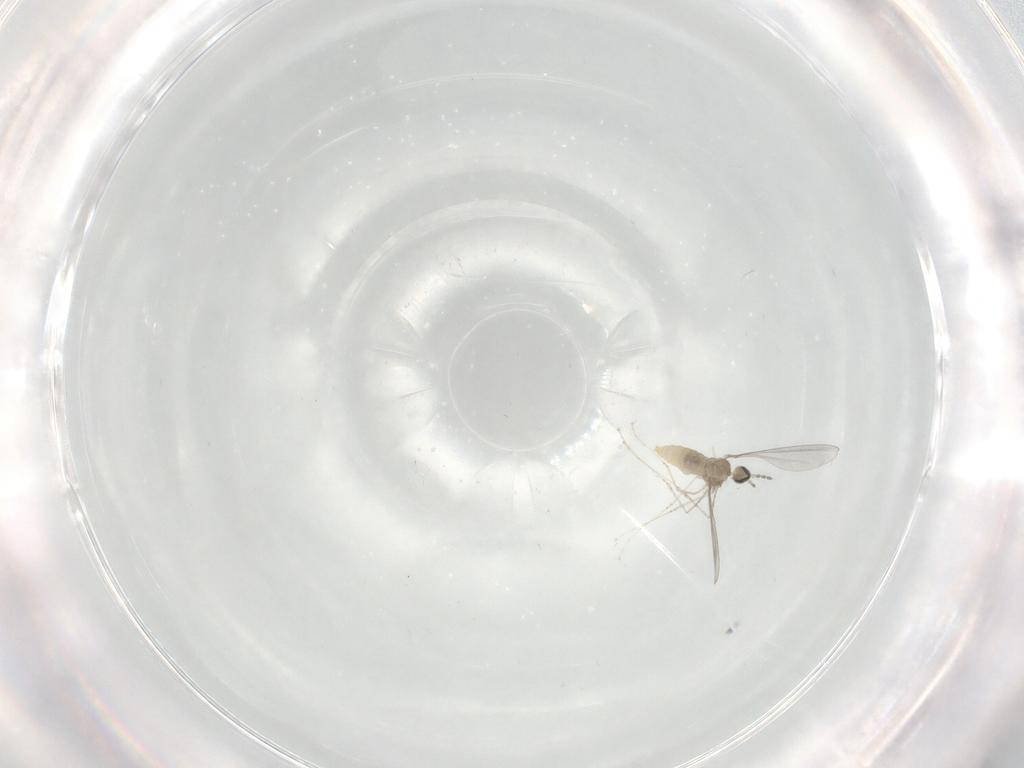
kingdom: Animalia
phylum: Arthropoda
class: Insecta
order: Diptera
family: Cecidomyiidae
